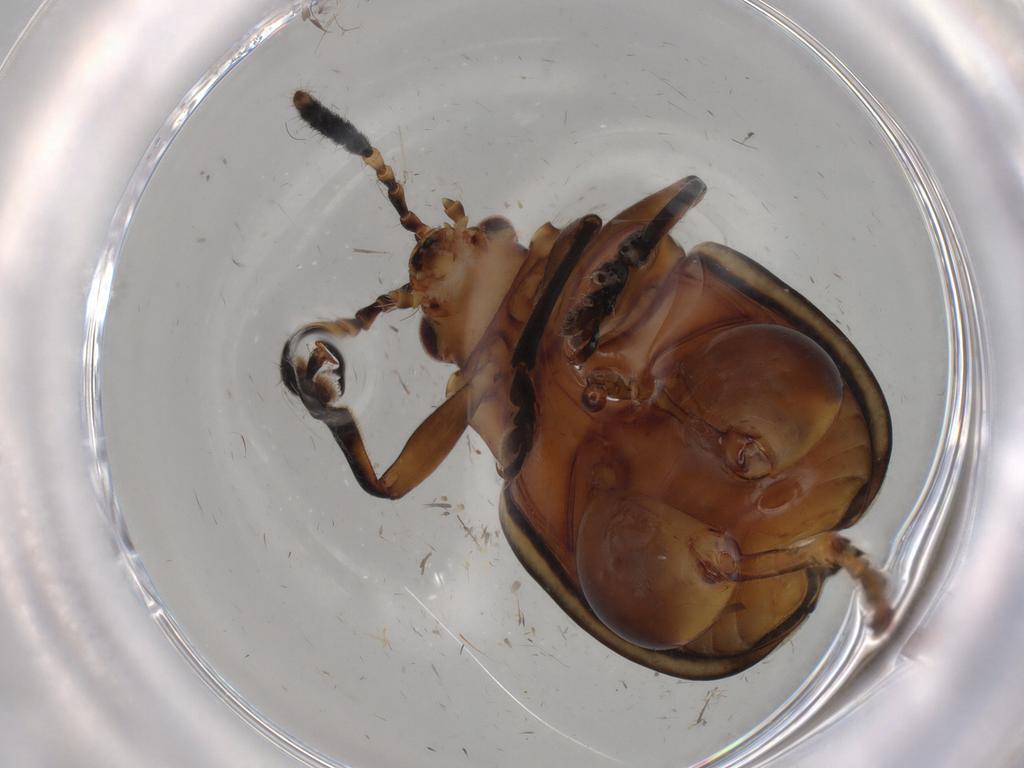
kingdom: Animalia
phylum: Arthropoda
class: Insecta
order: Coleoptera
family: Chrysomelidae
